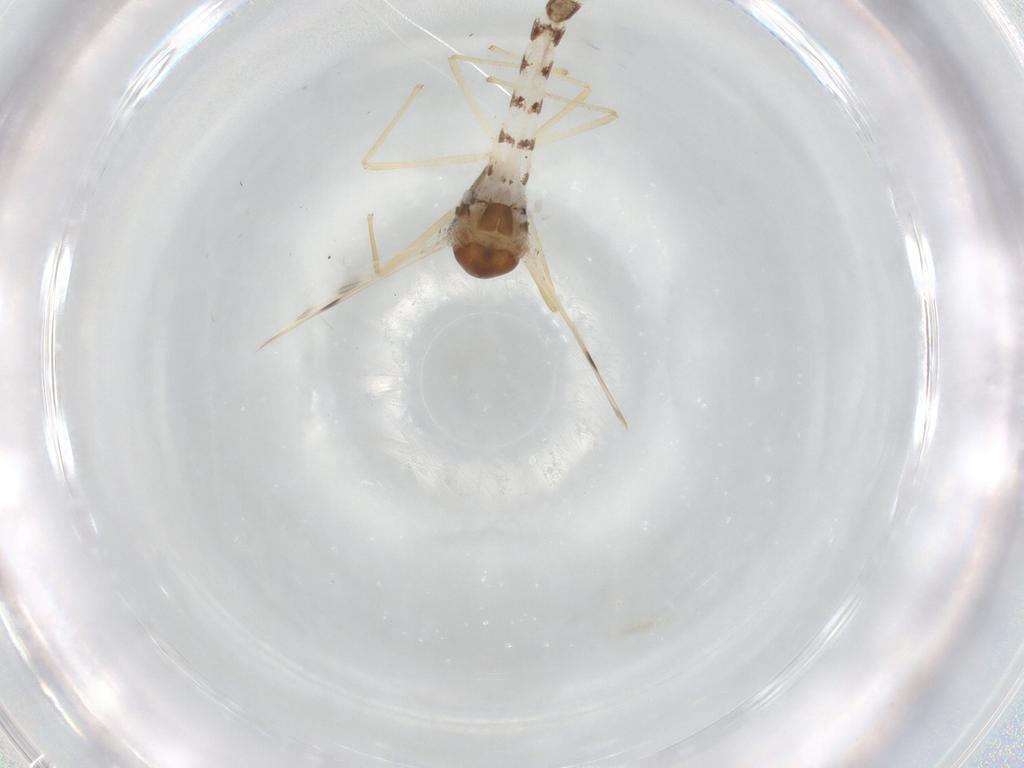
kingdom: Animalia
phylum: Arthropoda
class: Insecta
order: Diptera
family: Chironomidae
